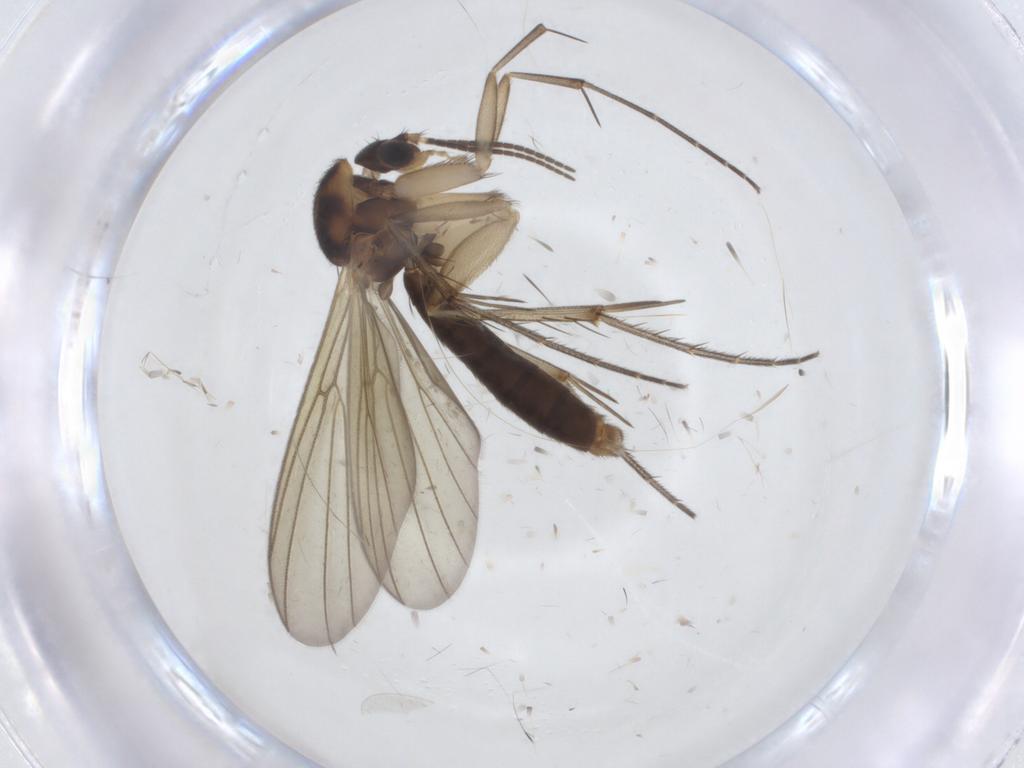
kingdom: Animalia
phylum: Arthropoda
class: Insecta
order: Diptera
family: Mycetophilidae
